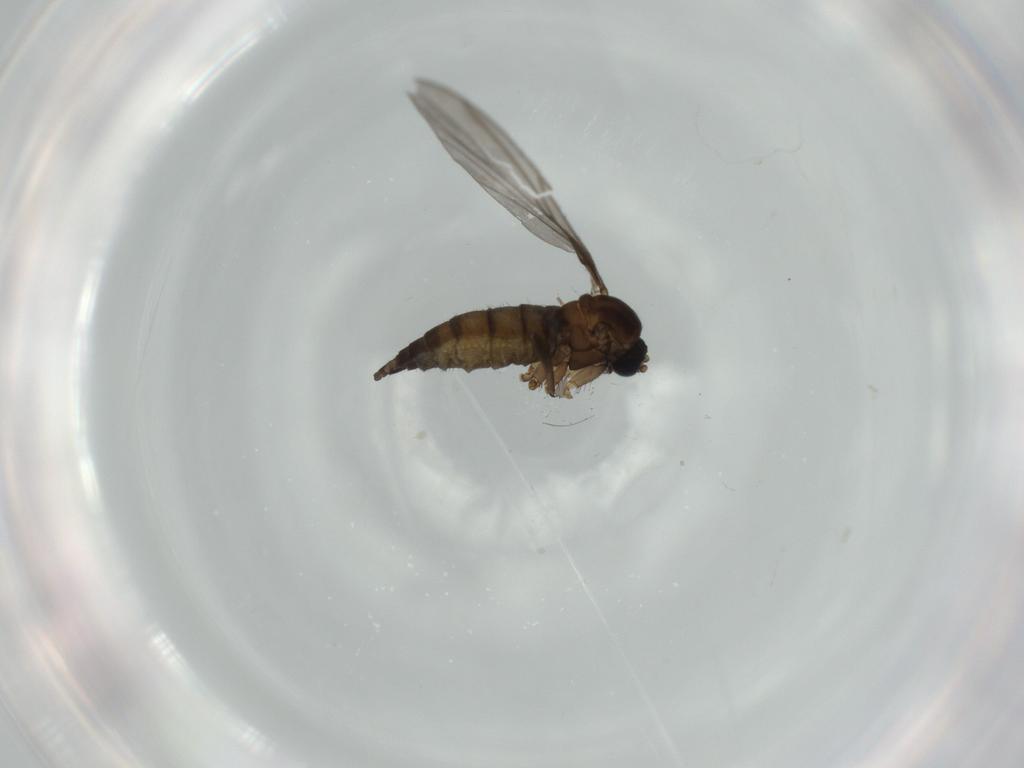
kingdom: Animalia
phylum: Arthropoda
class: Insecta
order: Diptera
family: Sciaridae
